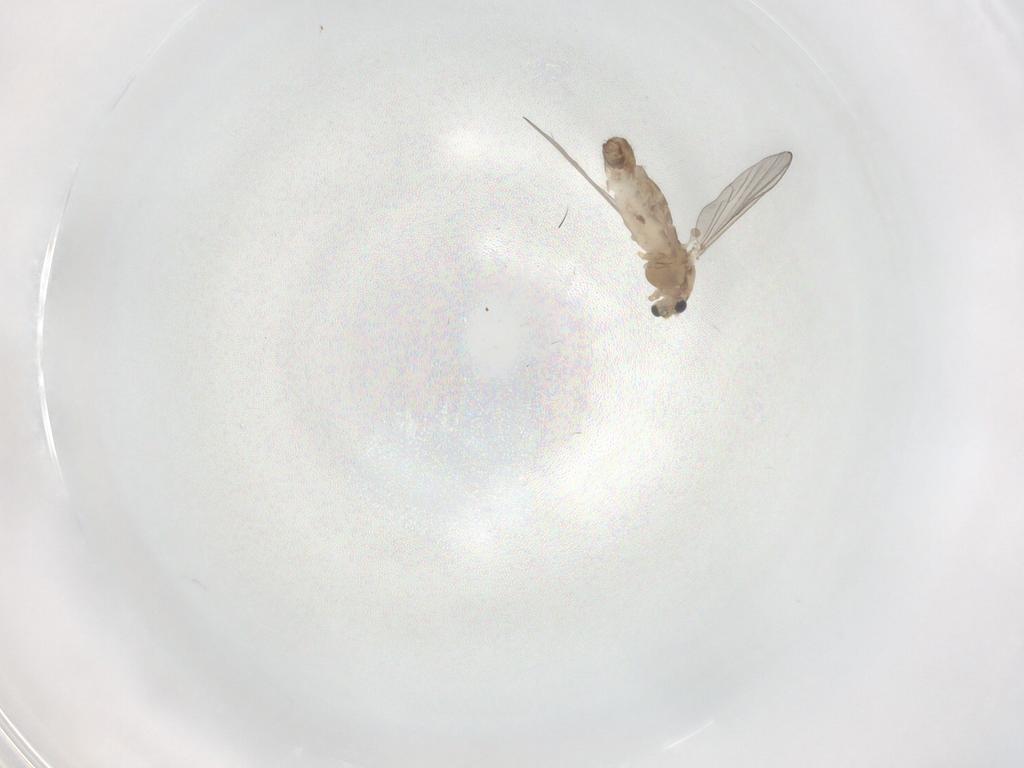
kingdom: Animalia
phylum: Arthropoda
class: Insecta
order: Diptera
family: Chironomidae
